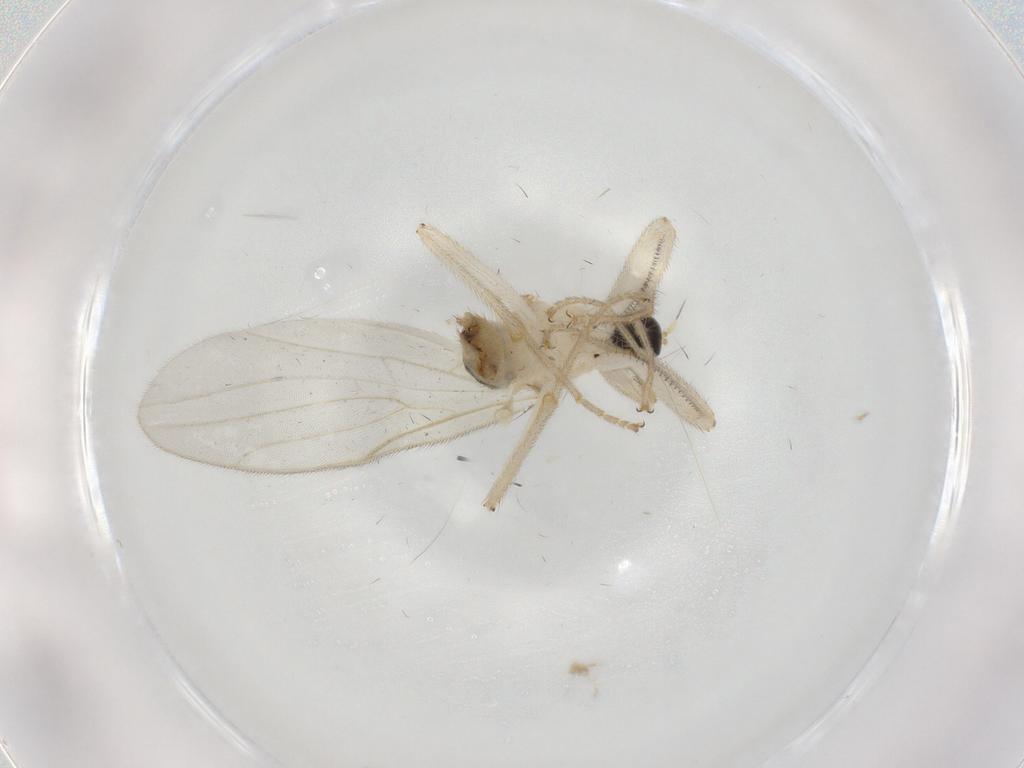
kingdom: Animalia
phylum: Arthropoda
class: Insecta
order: Diptera
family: Hybotidae
